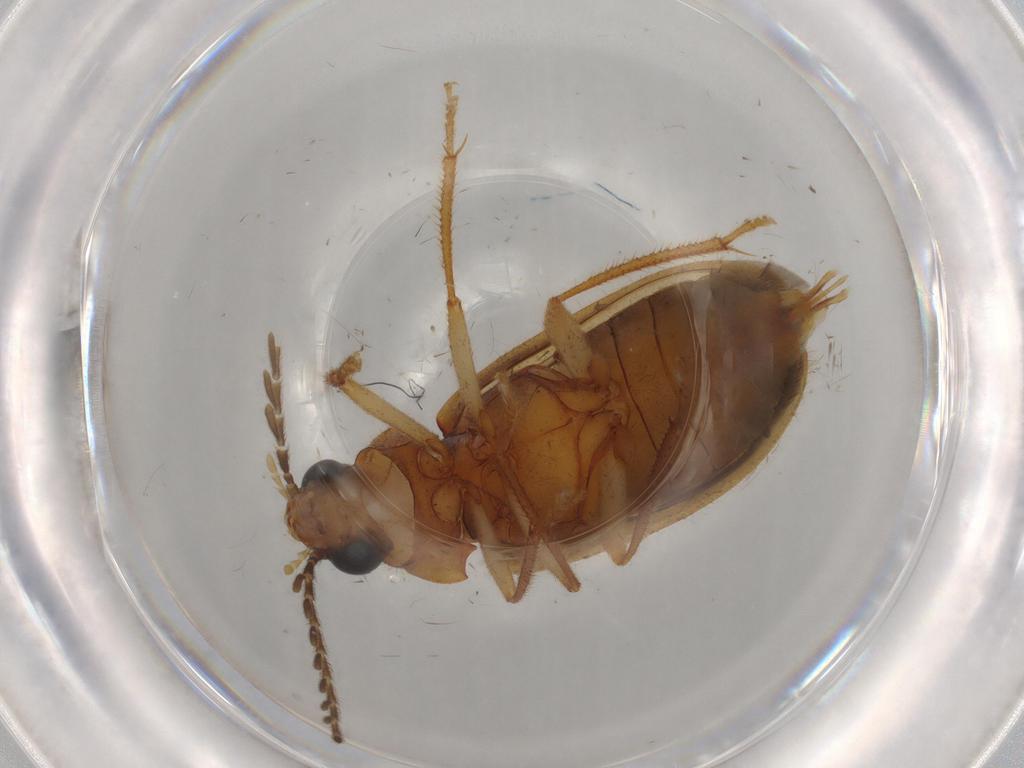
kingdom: Animalia
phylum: Arthropoda
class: Insecta
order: Coleoptera
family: Ptilodactylidae
